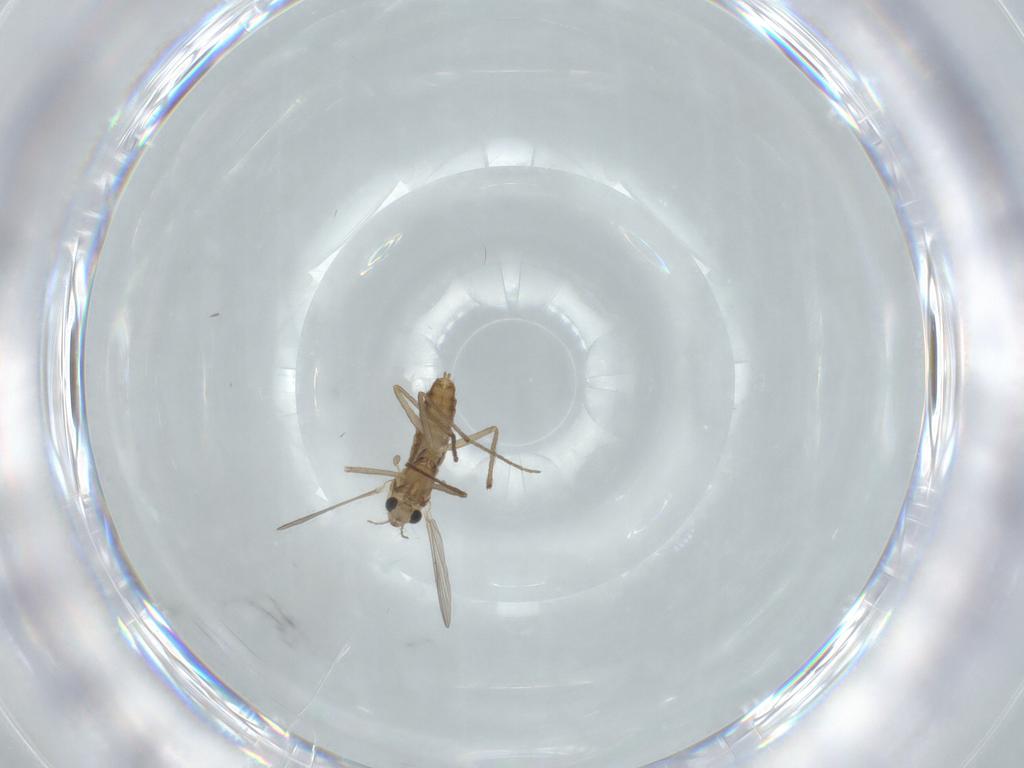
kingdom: Animalia
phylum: Arthropoda
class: Insecta
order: Diptera
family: Chironomidae
